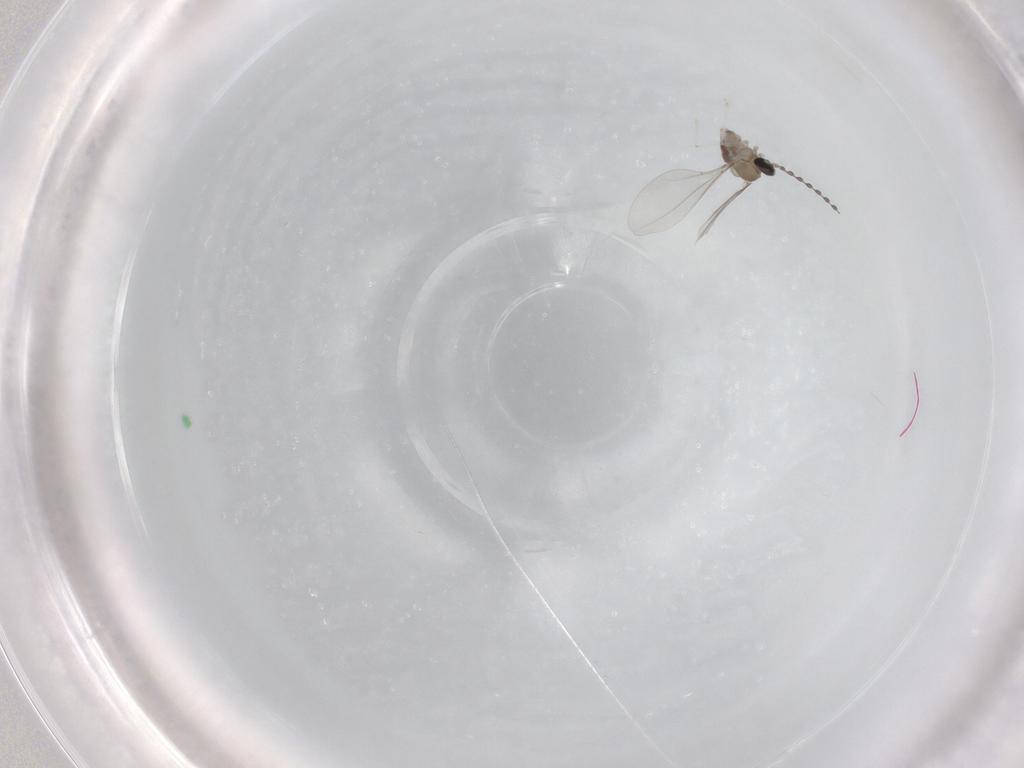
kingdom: Animalia
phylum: Arthropoda
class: Insecta
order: Diptera
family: Cecidomyiidae
